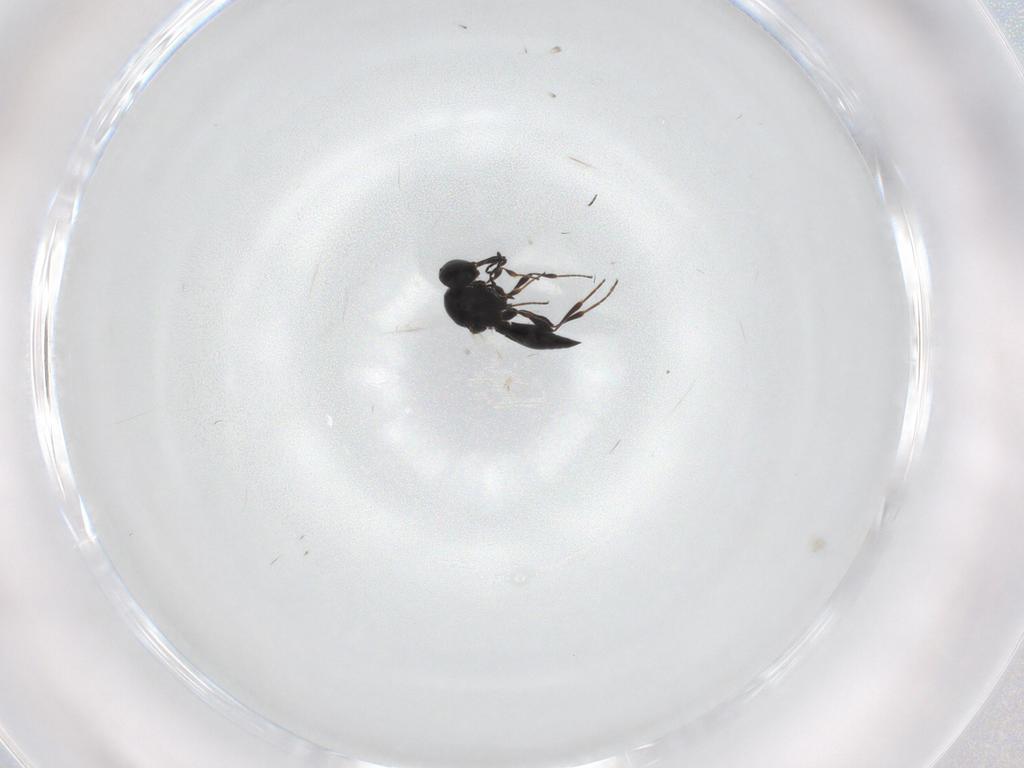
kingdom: Animalia
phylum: Arthropoda
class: Insecta
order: Hymenoptera
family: Platygastridae
